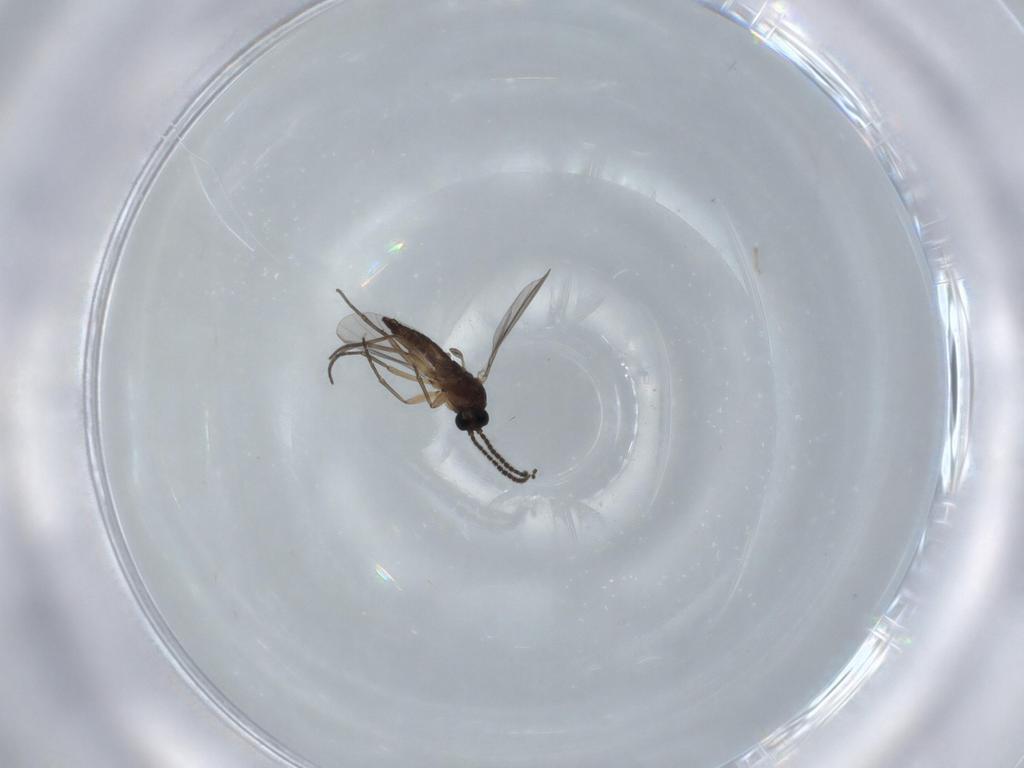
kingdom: Animalia
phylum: Arthropoda
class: Insecta
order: Diptera
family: Sciaridae
